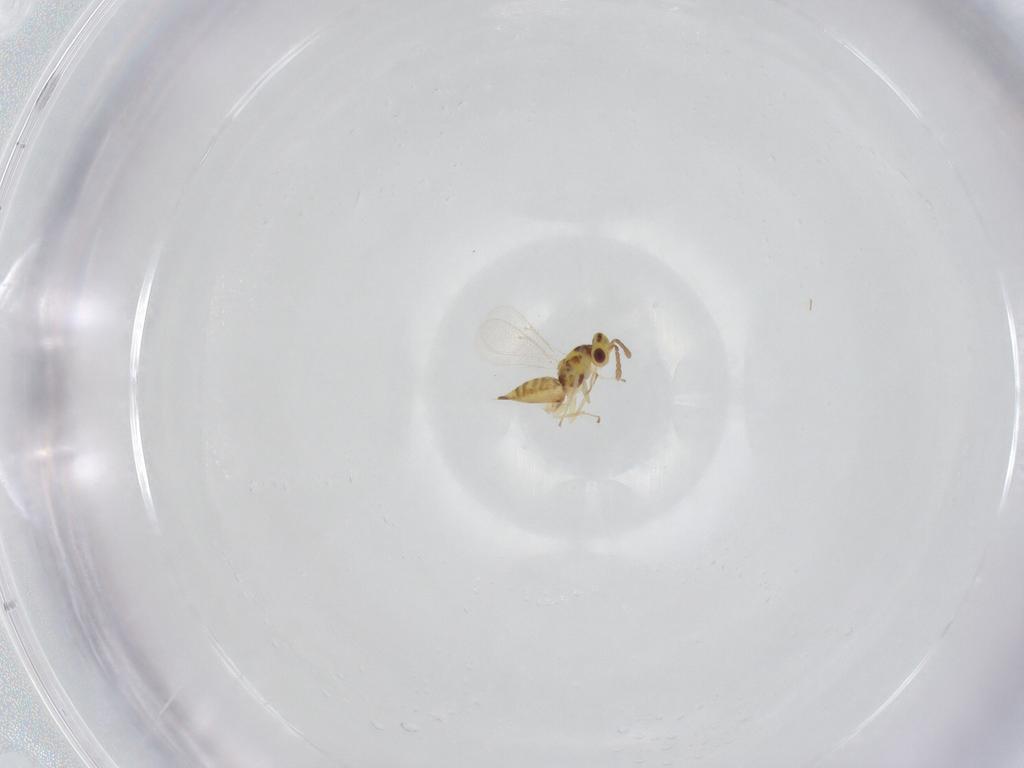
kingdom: Animalia
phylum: Arthropoda
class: Insecta
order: Hymenoptera
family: Eulophidae
